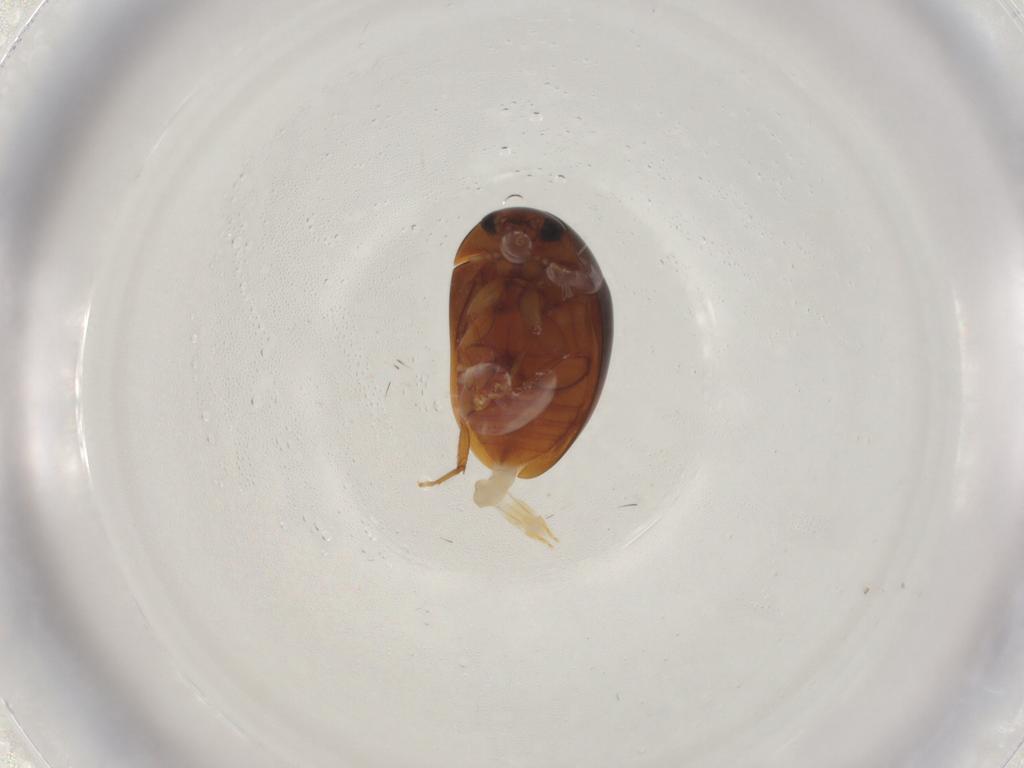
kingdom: Animalia
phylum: Arthropoda
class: Insecta
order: Coleoptera
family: Phalacridae
